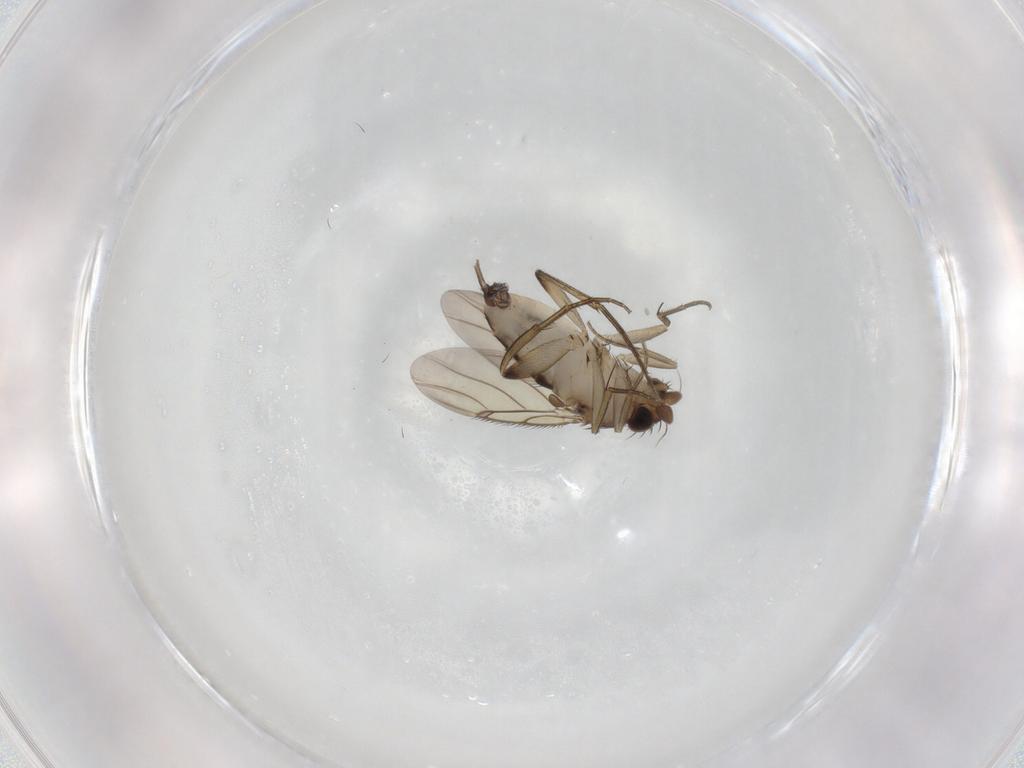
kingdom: Animalia
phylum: Arthropoda
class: Insecta
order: Diptera
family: Phoridae
